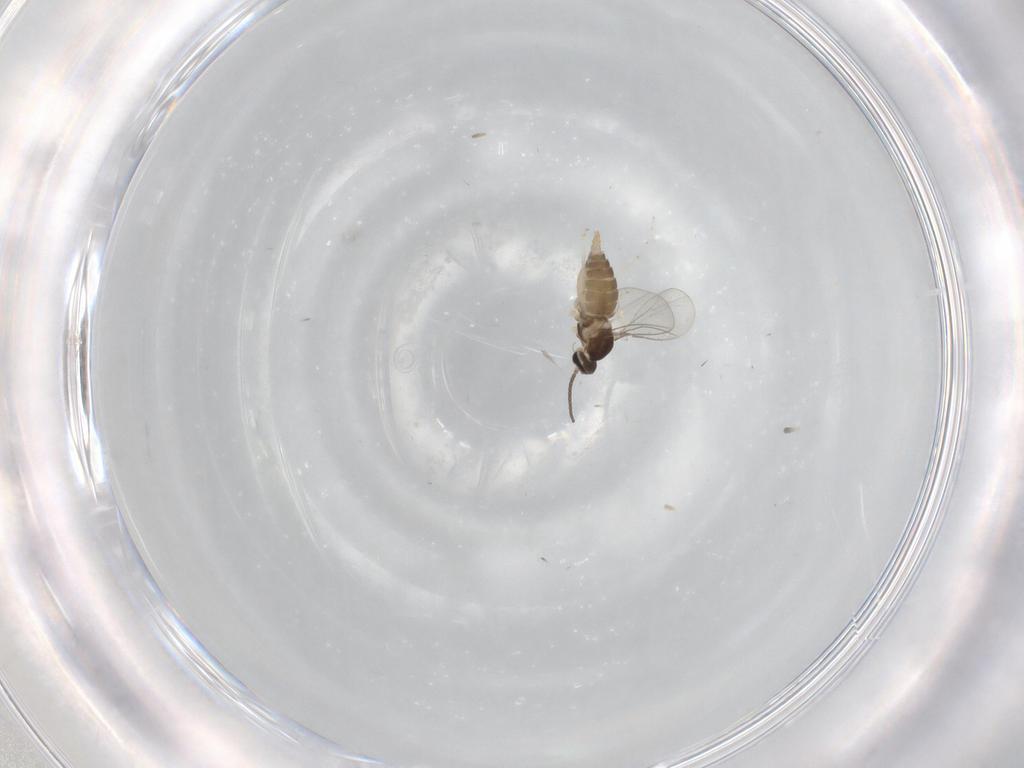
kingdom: Animalia
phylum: Arthropoda
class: Insecta
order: Diptera
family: Cecidomyiidae
